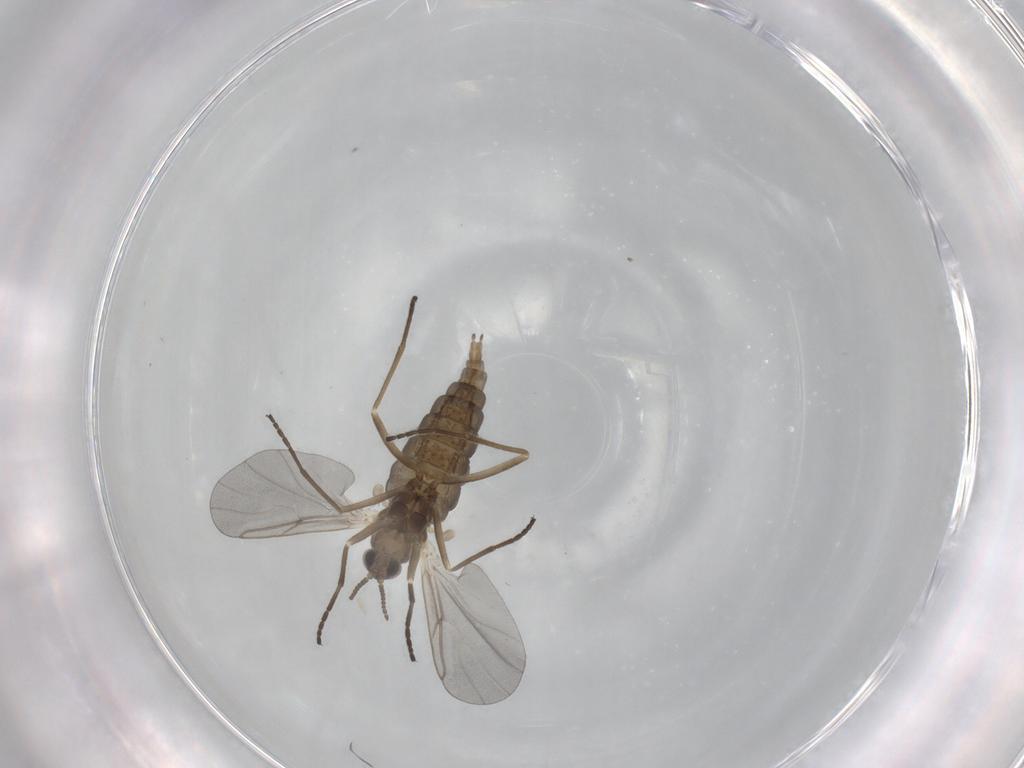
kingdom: Animalia
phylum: Arthropoda
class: Insecta
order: Diptera
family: Cecidomyiidae
